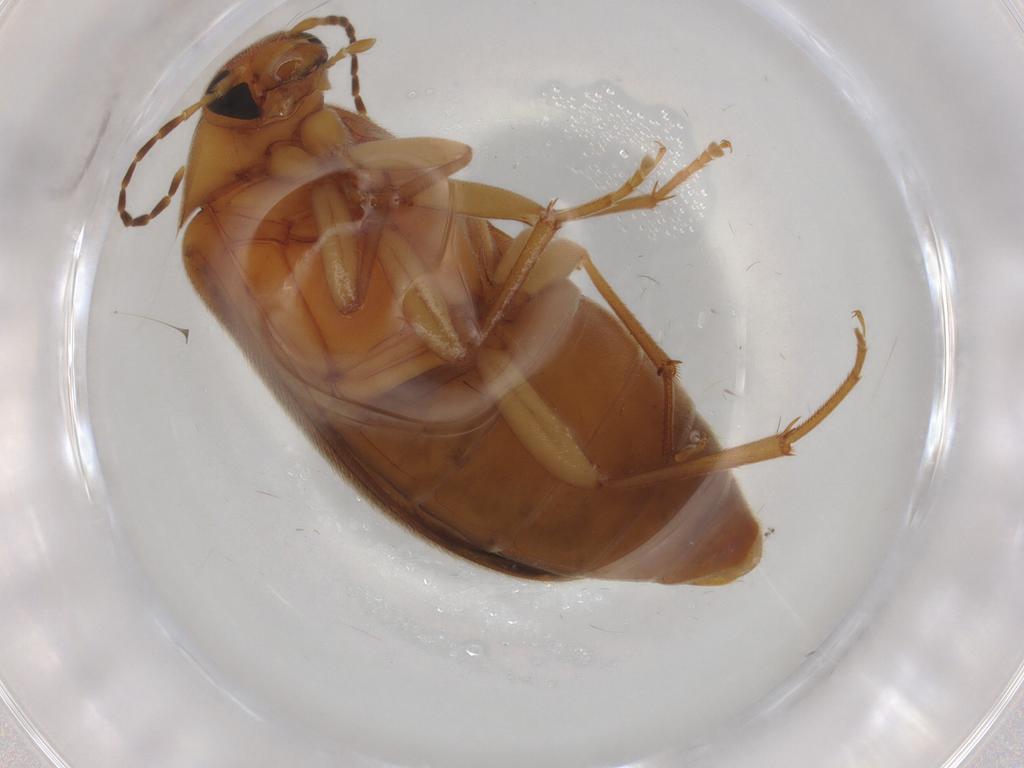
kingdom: Animalia
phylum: Arthropoda
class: Insecta
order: Coleoptera
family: Scraptiidae
